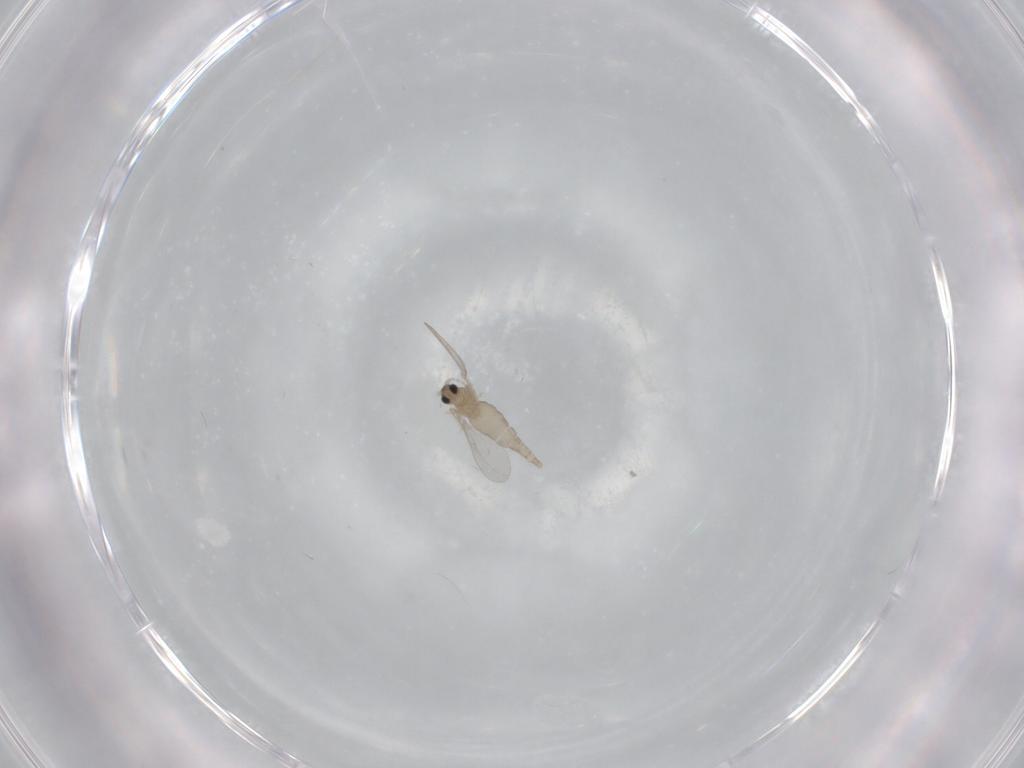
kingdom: Animalia
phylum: Arthropoda
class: Insecta
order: Diptera
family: Cecidomyiidae
